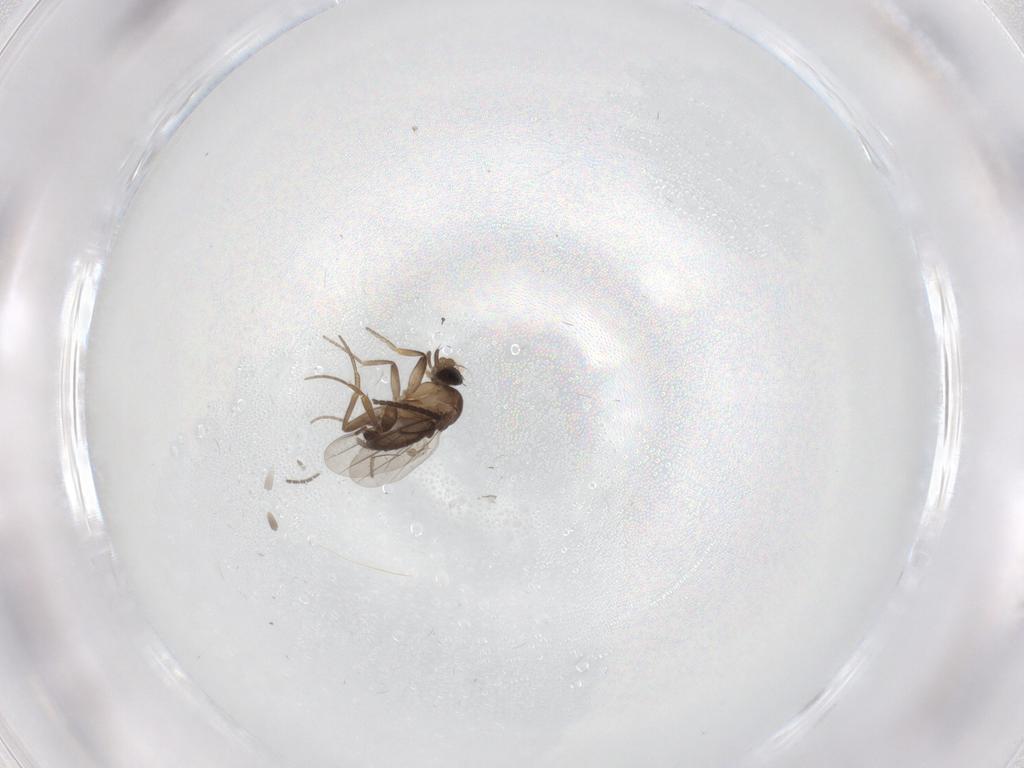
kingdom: Animalia
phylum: Arthropoda
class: Insecta
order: Diptera
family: Sciaridae
